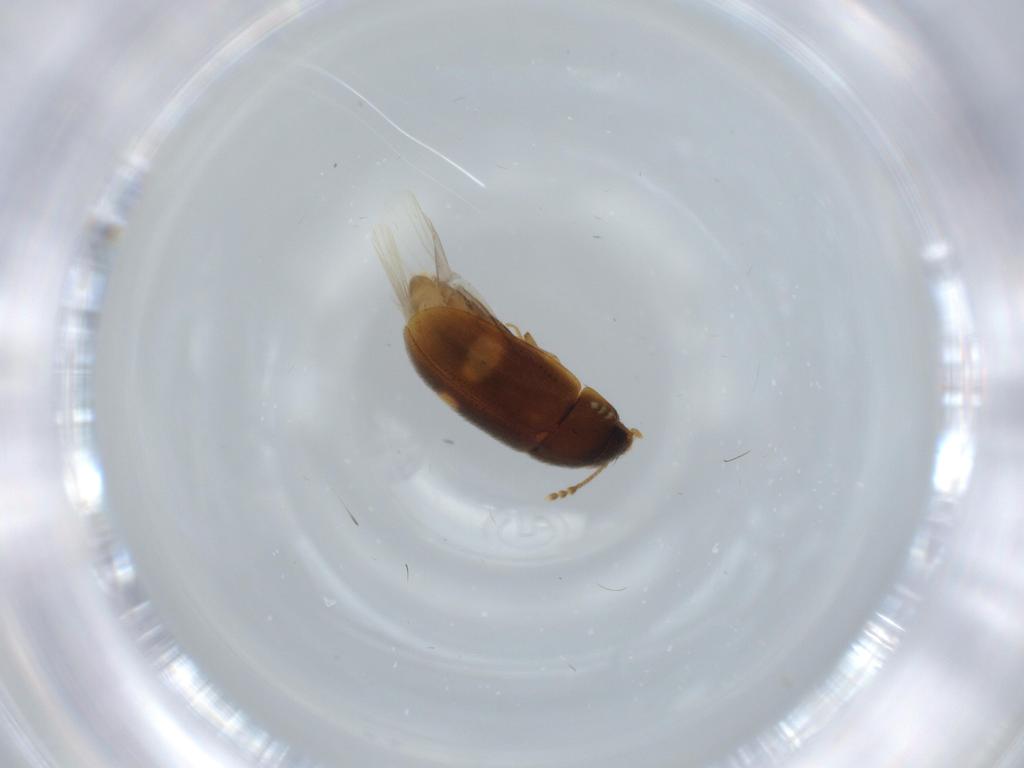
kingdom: Animalia
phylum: Arthropoda
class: Insecta
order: Coleoptera
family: Mycetophagidae
